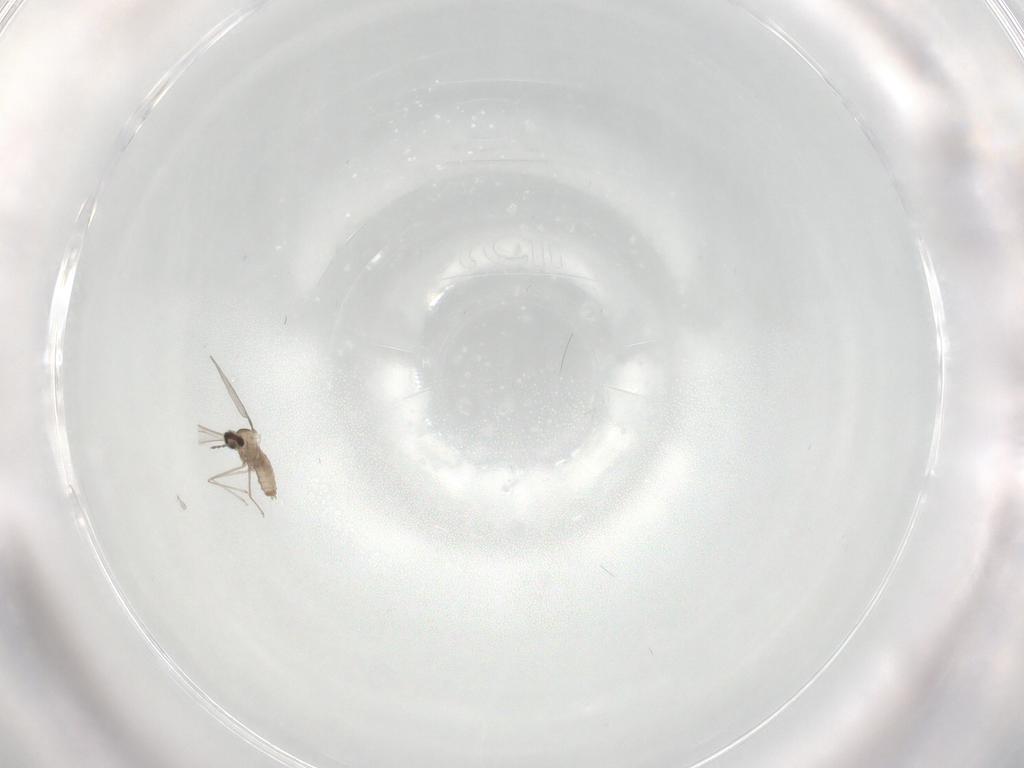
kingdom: Animalia
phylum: Arthropoda
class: Insecta
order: Diptera
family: Cecidomyiidae
